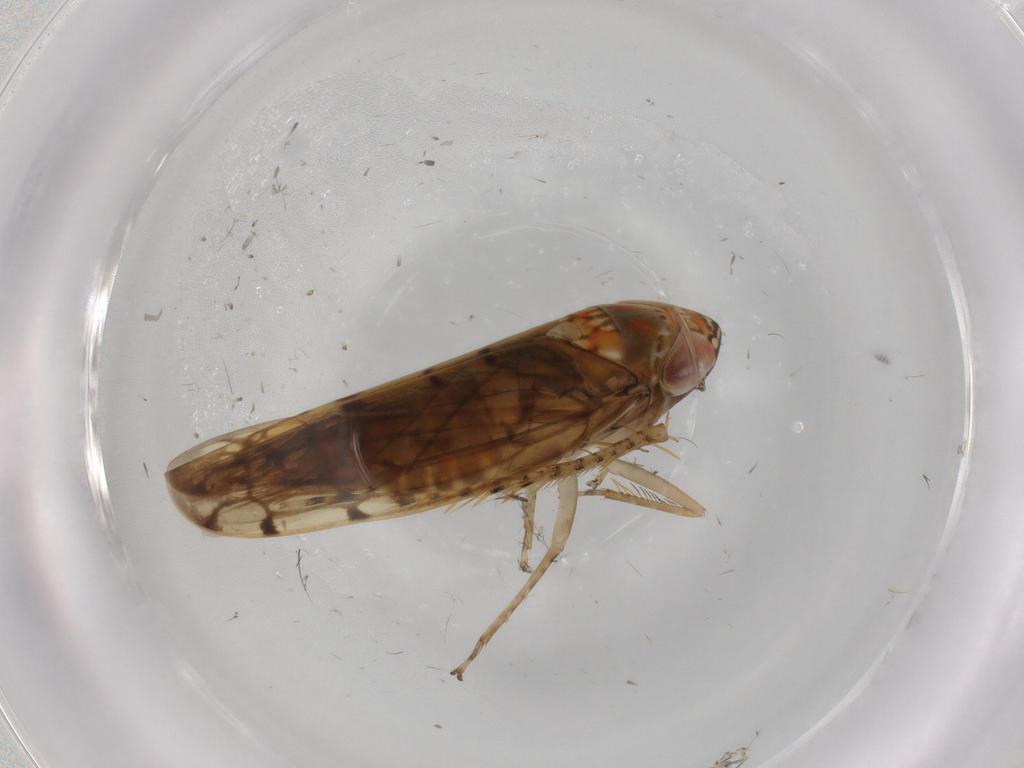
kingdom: Animalia
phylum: Arthropoda
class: Insecta
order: Hemiptera
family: Cicadellidae
